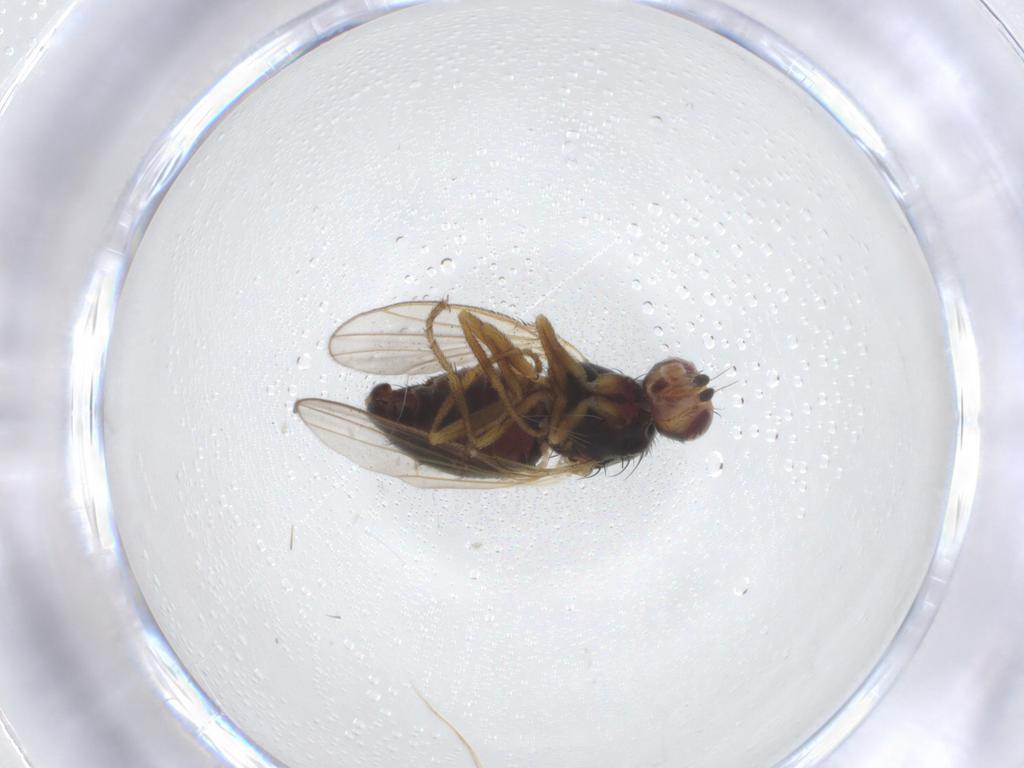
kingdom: Animalia
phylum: Arthropoda
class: Insecta
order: Diptera
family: Heleomyzidae
